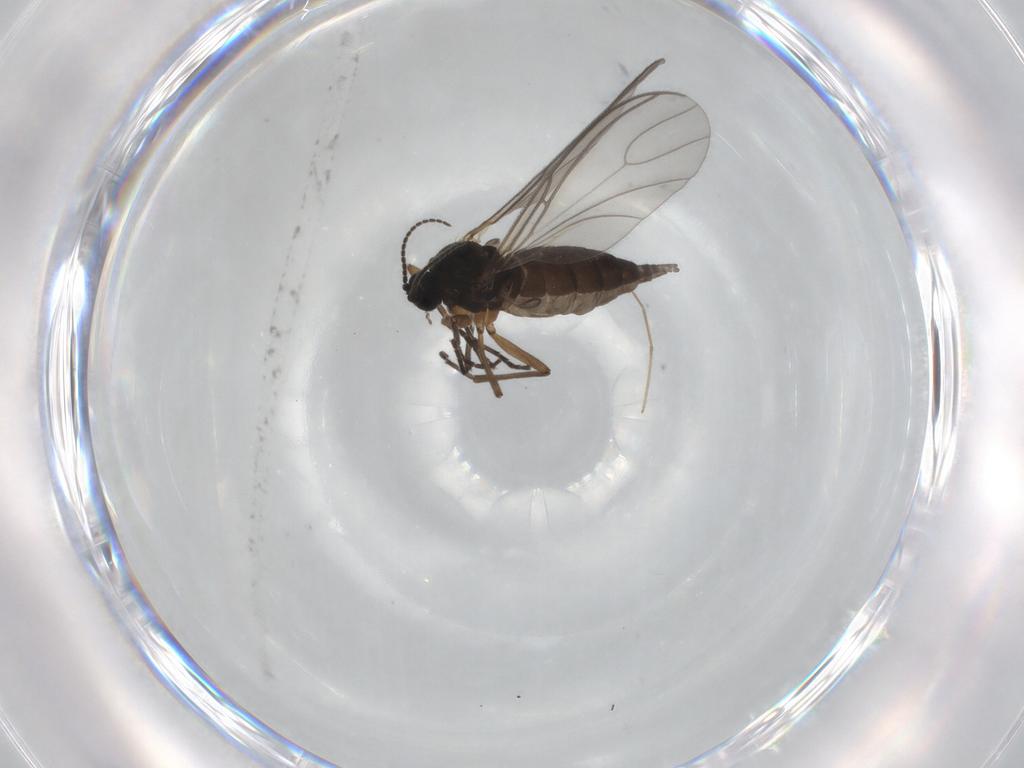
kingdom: Animalia
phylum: Arthropoda
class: Insecta
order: Diptera
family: Sciaridae
